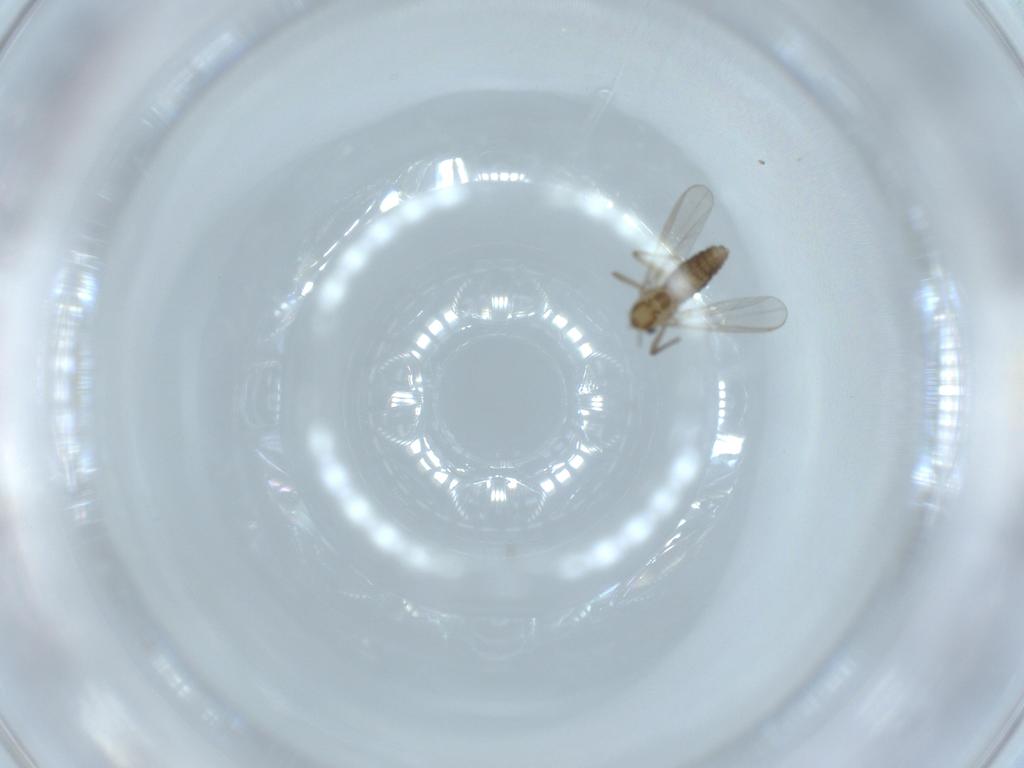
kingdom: Animalia
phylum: Arthropoda
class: Insecta
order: Diptera
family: Chironomidae
